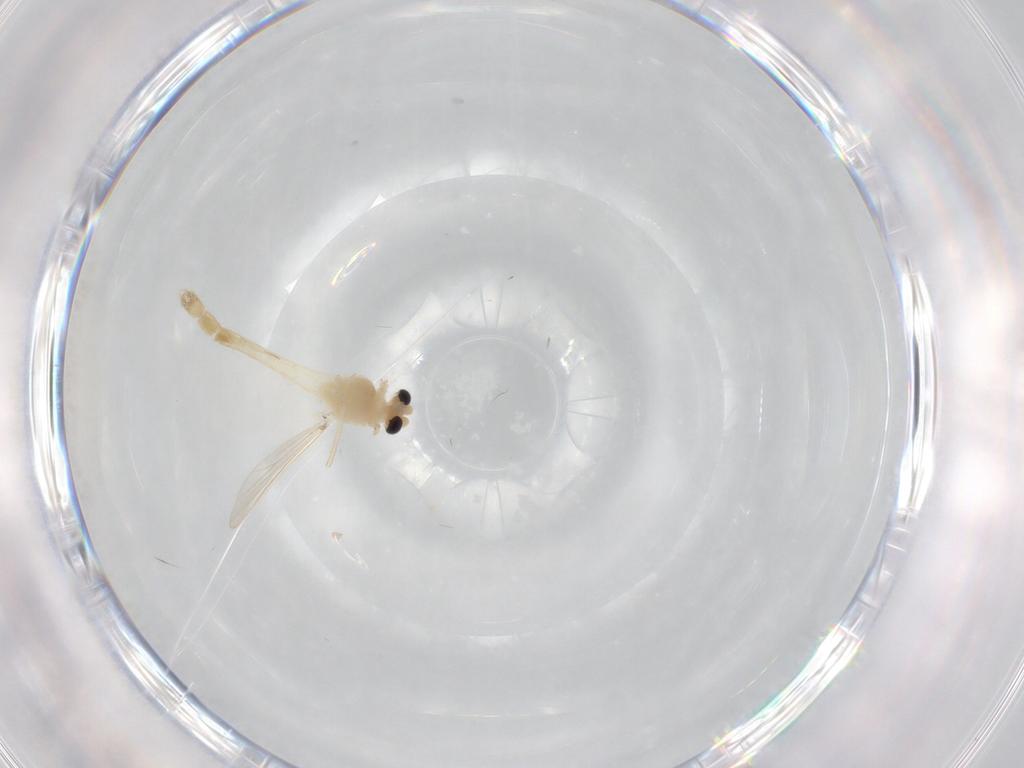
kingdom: Animalia
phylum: Arthropoda
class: Insecta
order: Diptera
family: Chironomidae
